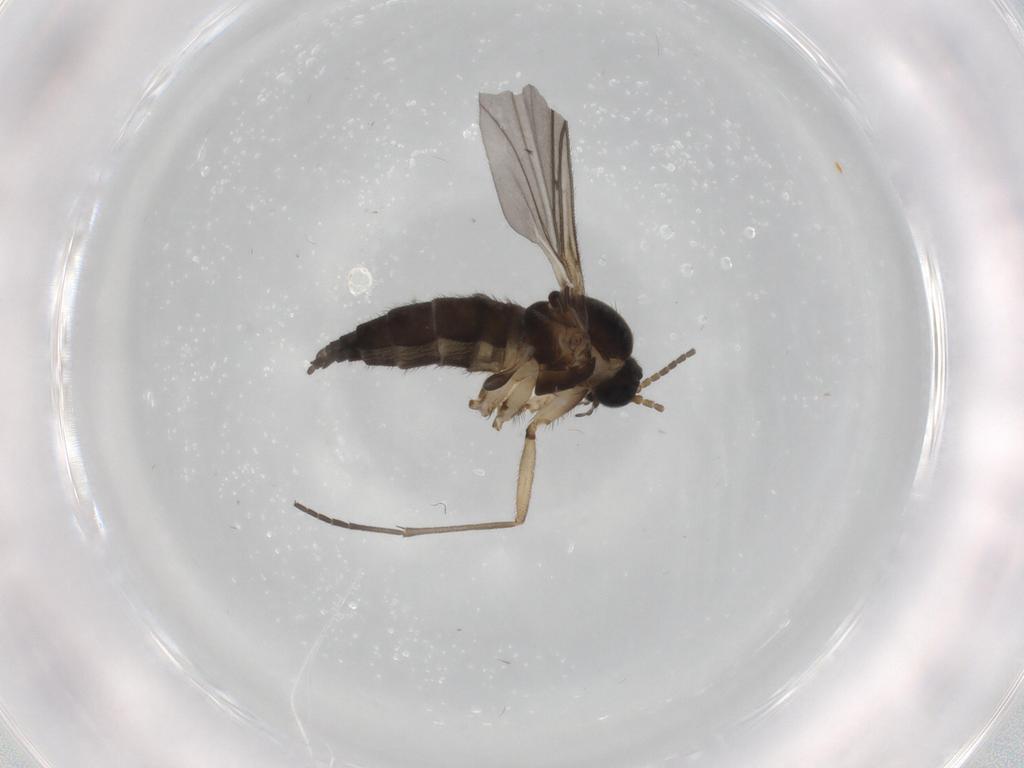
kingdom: Animalia
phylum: Arthropoda
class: Insecta
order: Diptera
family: Sciaridae
